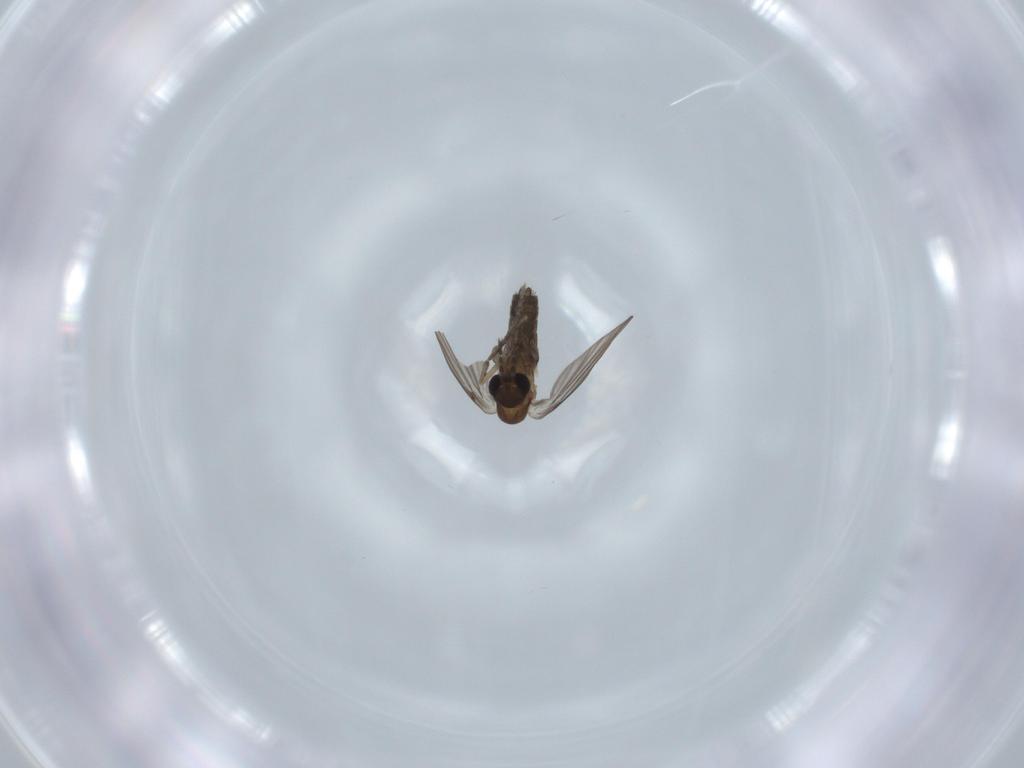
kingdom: Animalia
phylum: Arthropoda
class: Insecta
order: Diptera
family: Psychodidae
